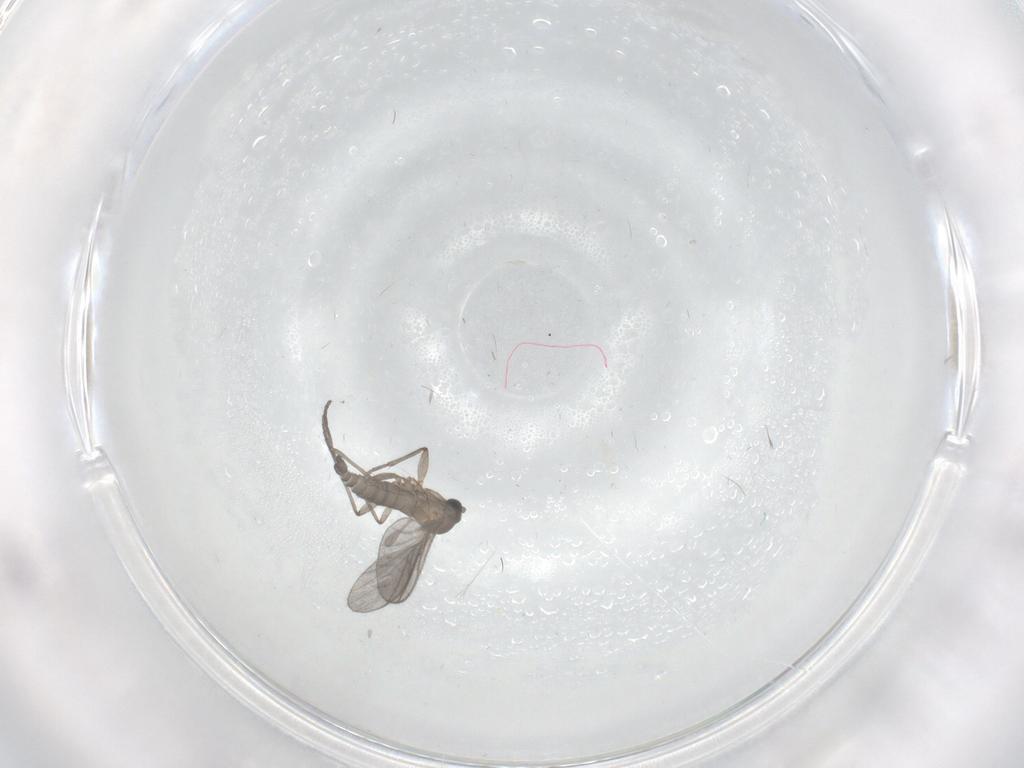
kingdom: Animalia
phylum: Arthropoda
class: Insecta
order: Diptera
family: Sciaridae
